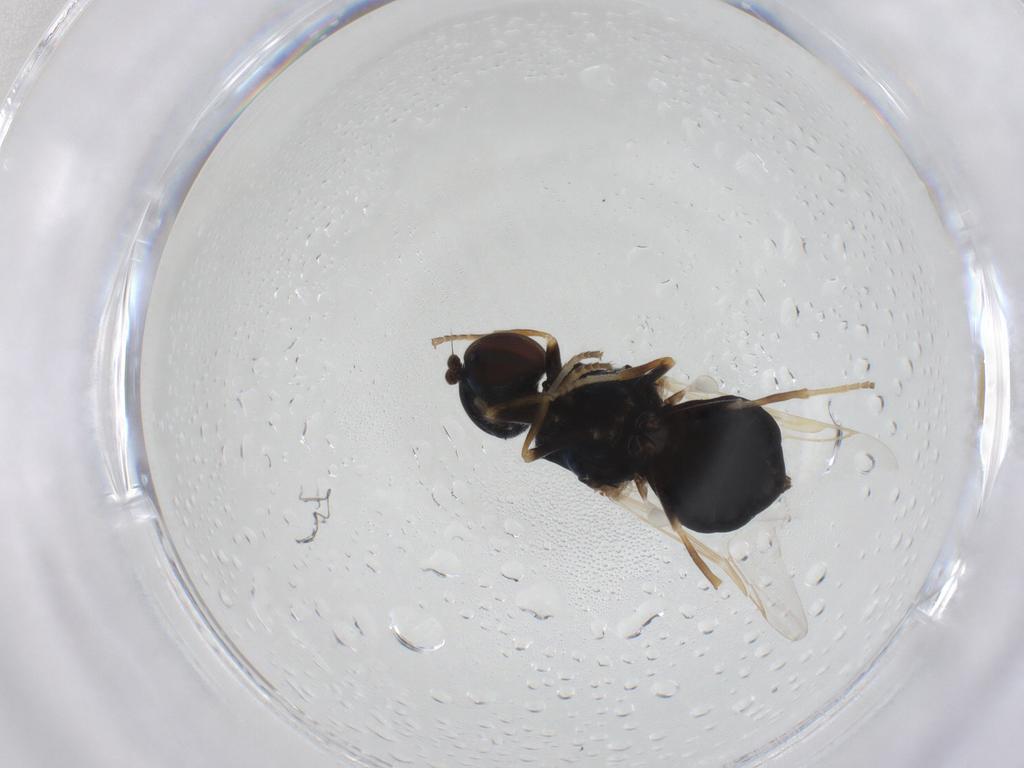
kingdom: Animalia
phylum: Arthropoda
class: Insecta
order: Diptera
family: Stratiomyidae
